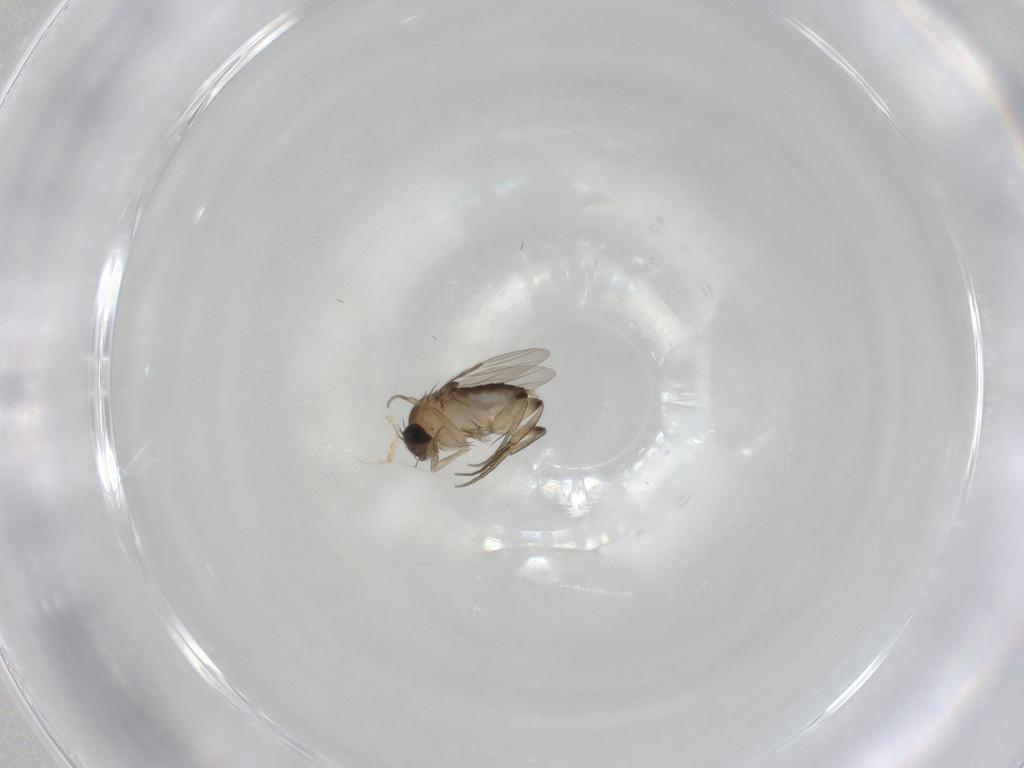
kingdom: Animalia
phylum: Arthropoda
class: Insecta
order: Diptera
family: Phoridae
